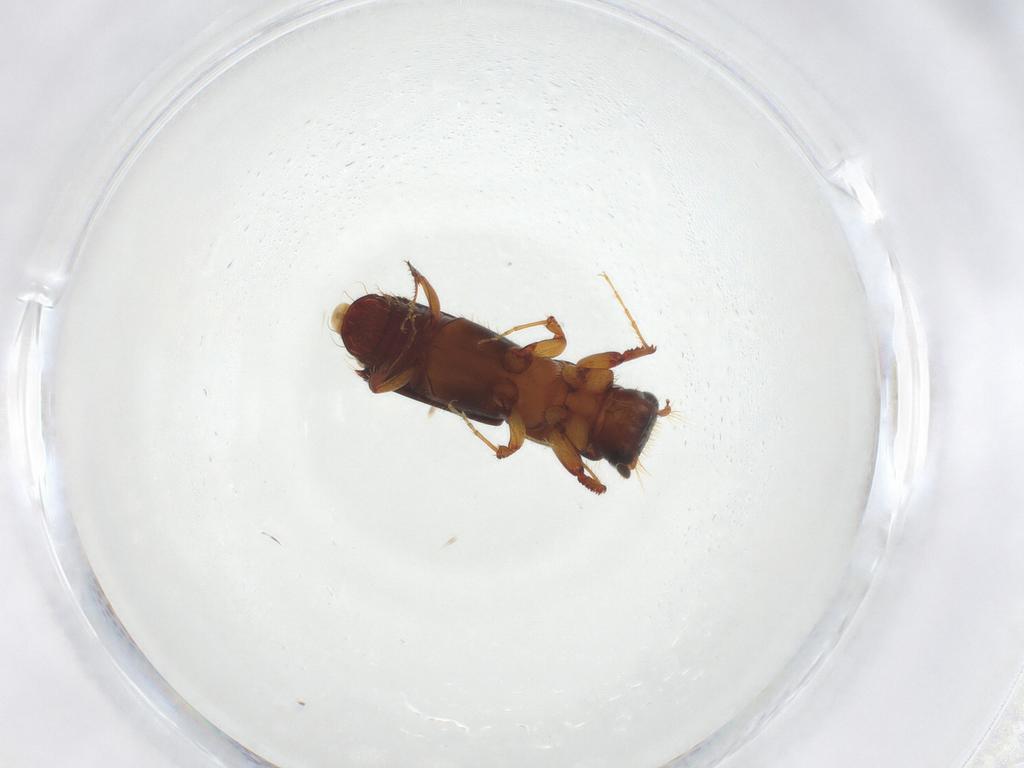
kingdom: Animalia
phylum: Arthropoda
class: Insecta
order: Coleoptera
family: Curculionidae
